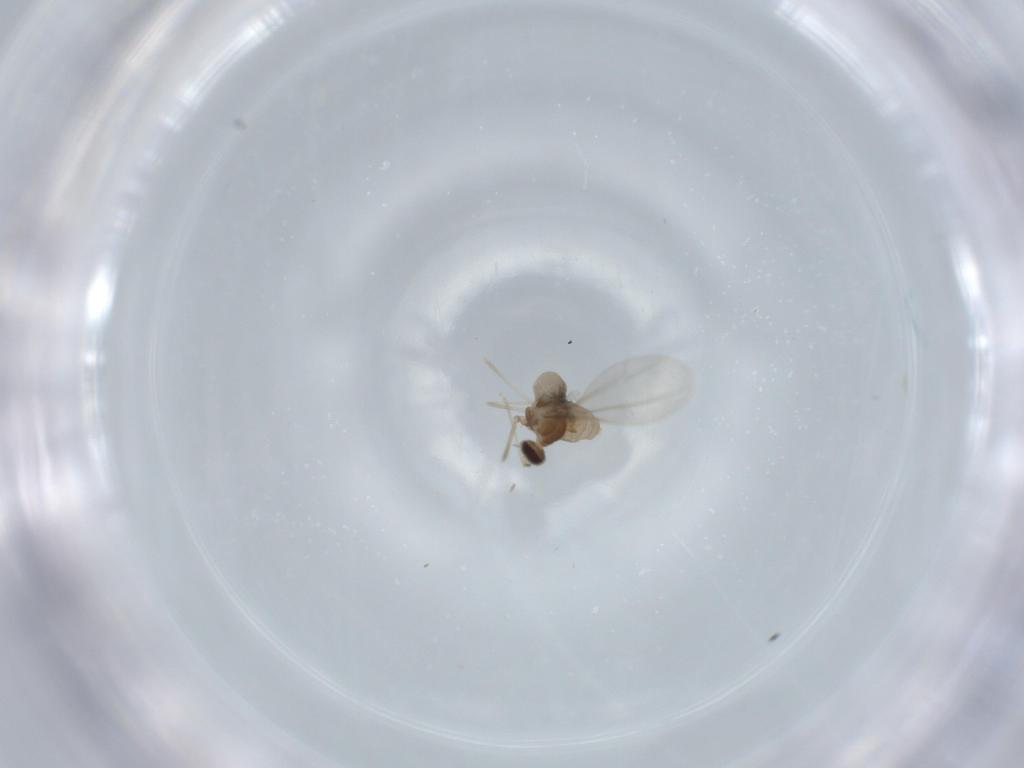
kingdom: Animalia
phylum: Arthropoda
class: Insecta
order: Diptera
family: Cecidomyiidae
